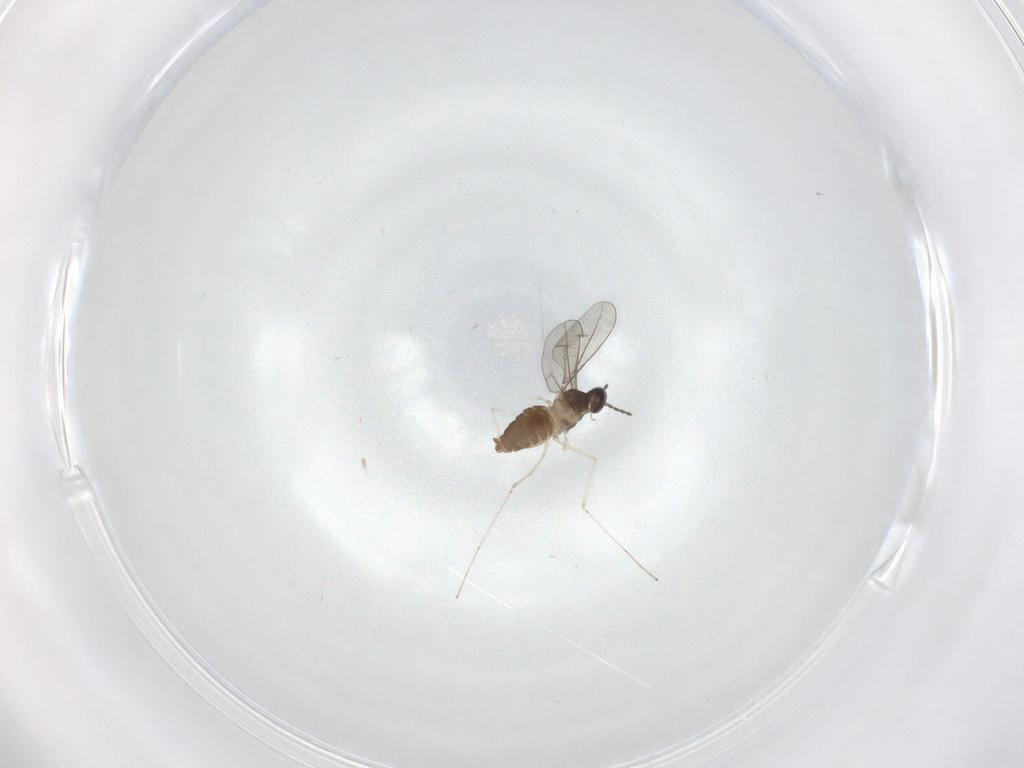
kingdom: Animalia
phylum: Arthropoda
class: Insecta
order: Diptera
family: Cecidomyiidae
